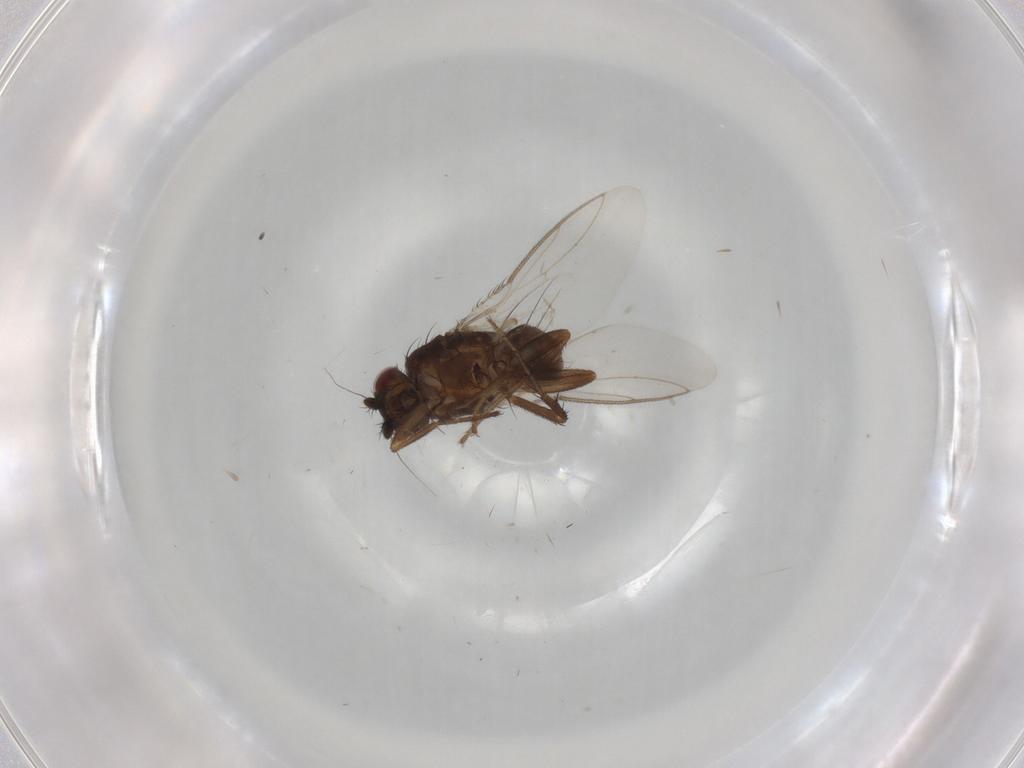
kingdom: Animalia
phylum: Arthropoda
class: Insecta
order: Diptera
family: Sphaeroceridae
